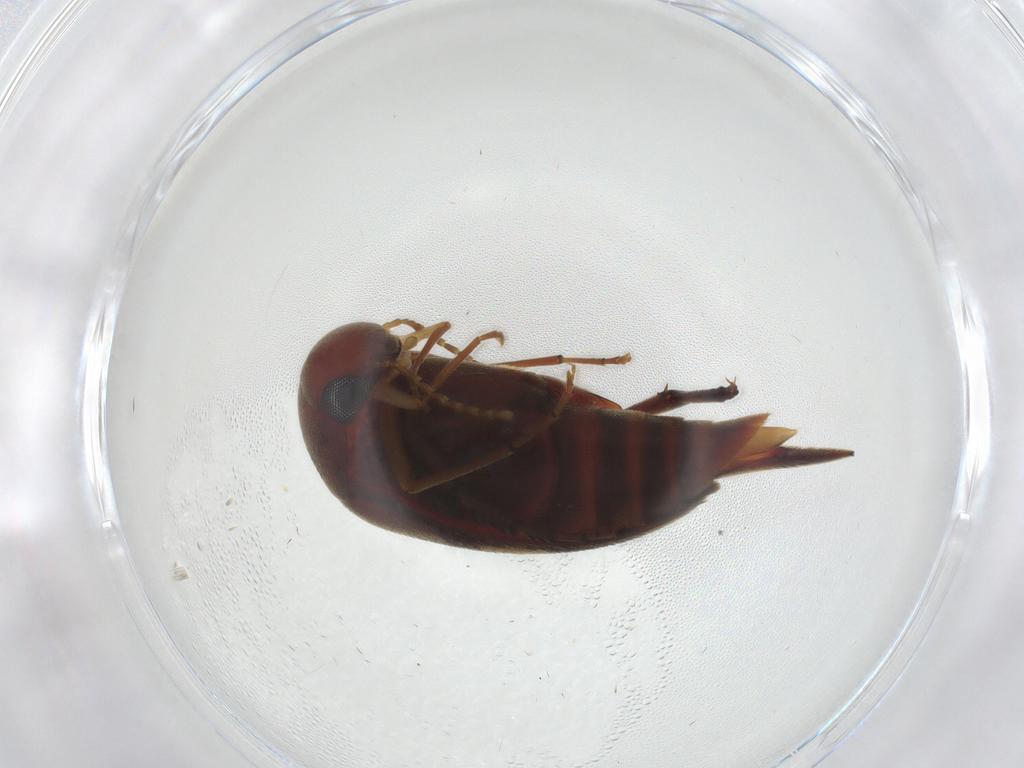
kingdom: Animalia
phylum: Arthropoda
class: Insecta
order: Coleoptera
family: Mordellidae
